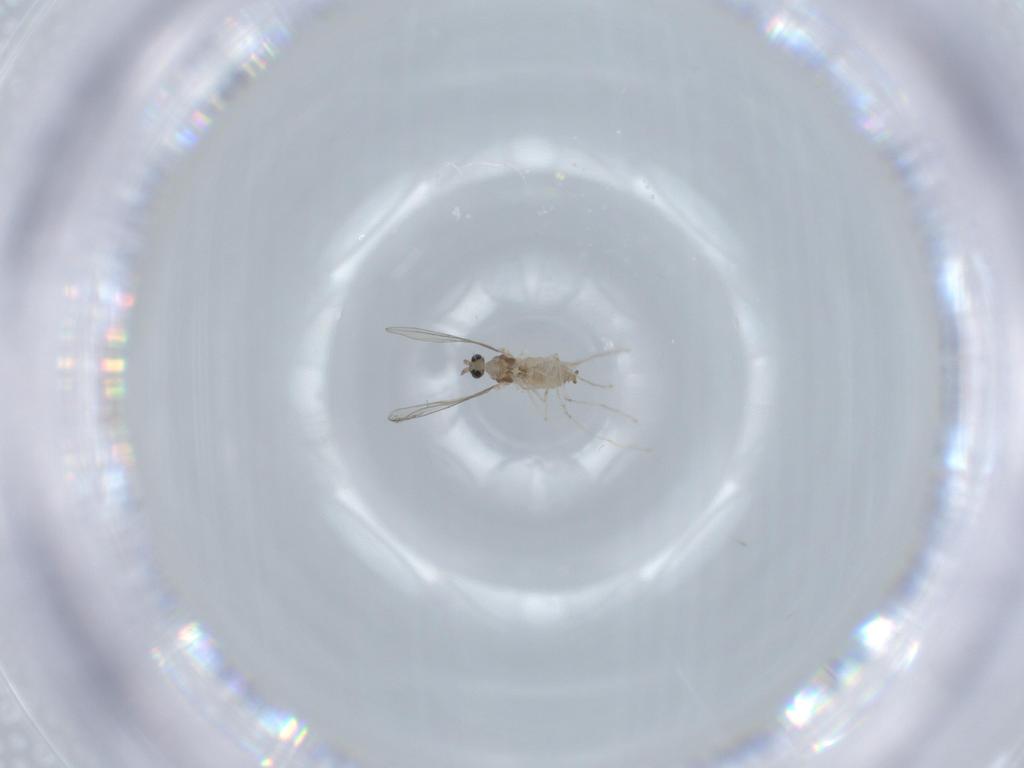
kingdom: Animalia
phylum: Arthropoda
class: Insecta
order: Diptera
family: Cecidomyiidae
